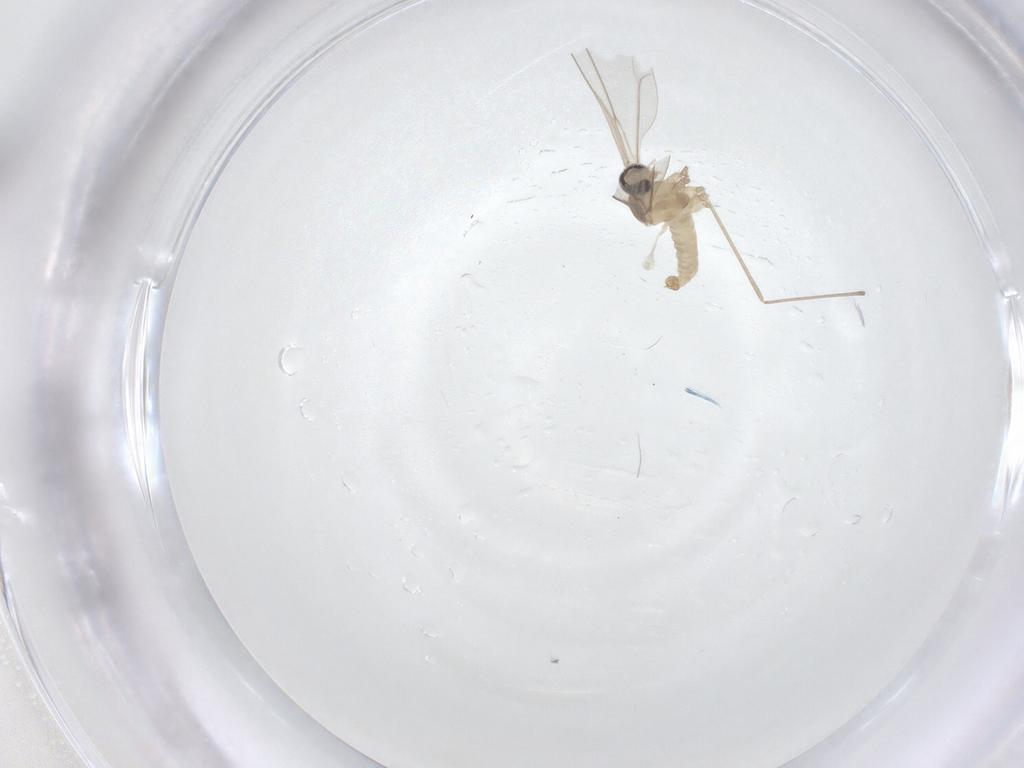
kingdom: Animalia
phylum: Arthropoda
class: Insecta
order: Diptera
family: Cecidomyiidae
